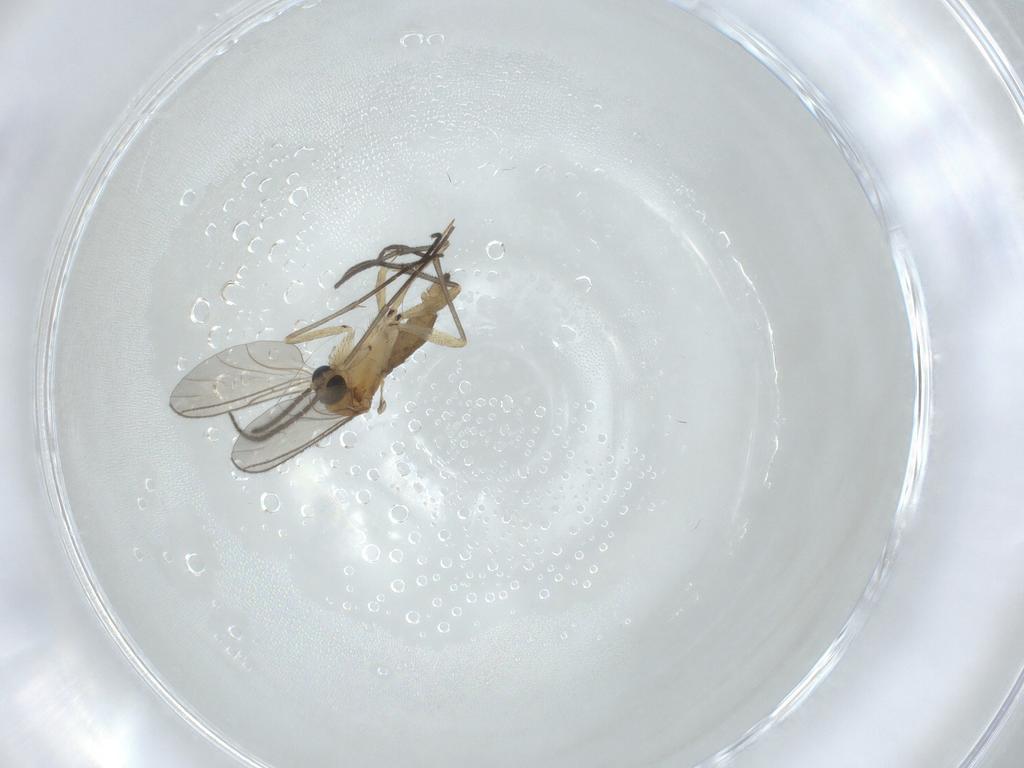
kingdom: Animalia
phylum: Arthropoda
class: Insecta
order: Diptera
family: Sciaridae
